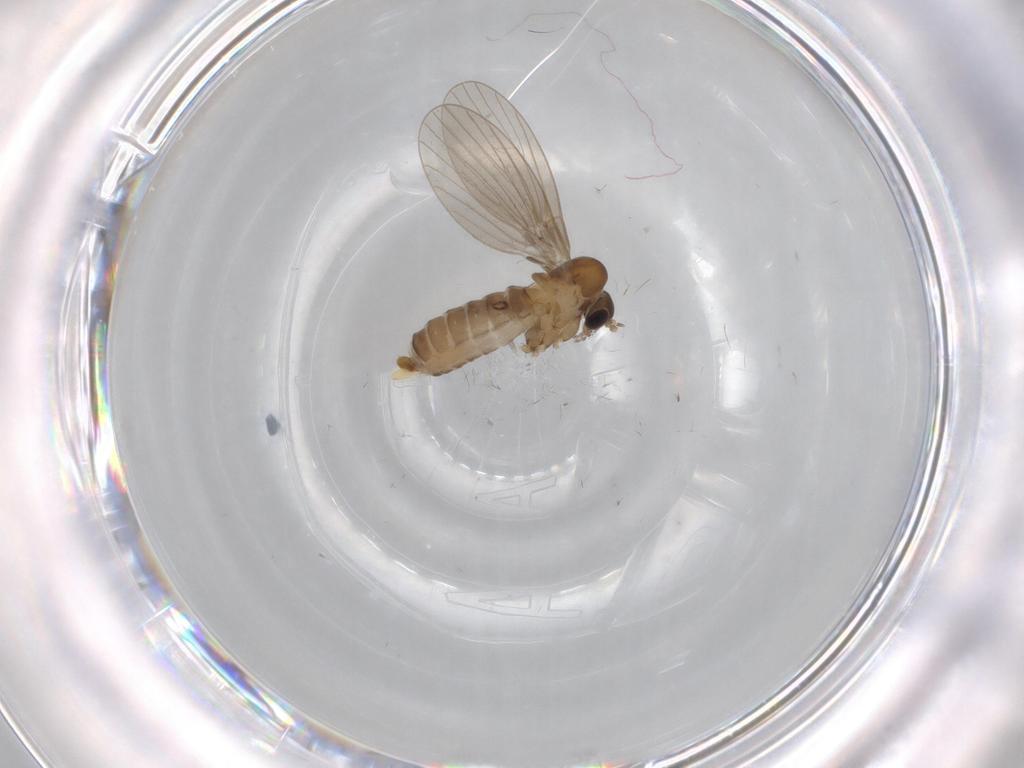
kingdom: Animalia
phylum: Arthropoda
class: Insecta
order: Diptera
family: Psychodidae
